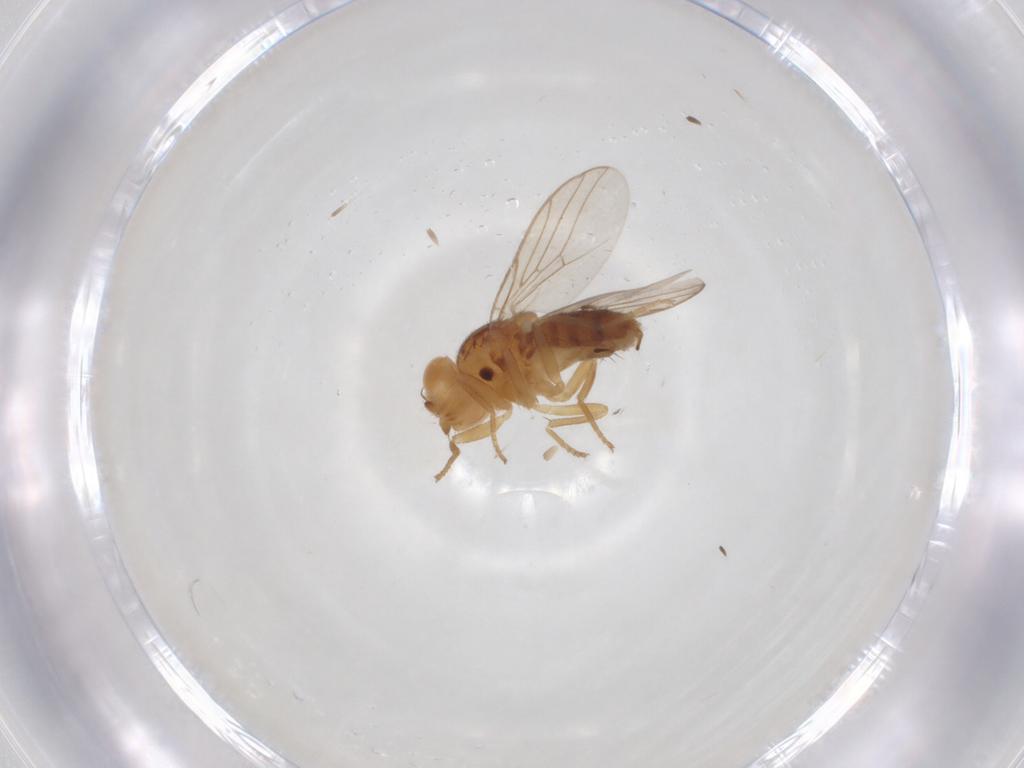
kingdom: Animalia
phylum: Arthropoda
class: Insecta
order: Diptera
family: Chloropidae
